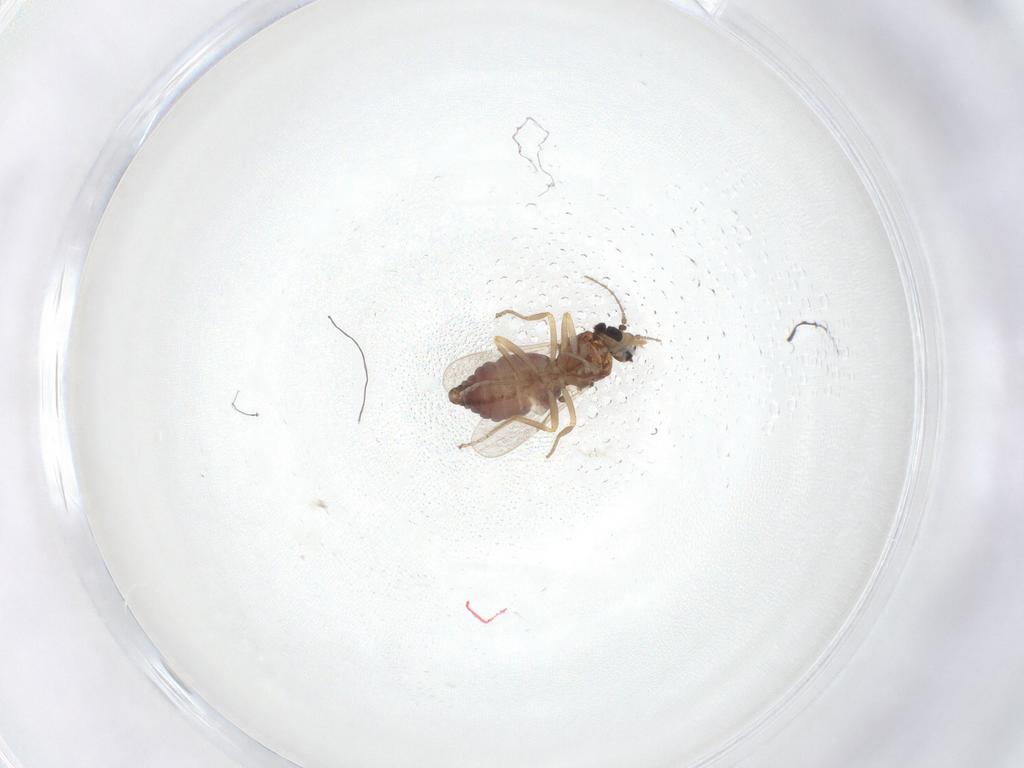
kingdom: Animalia
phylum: Arthropoda
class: Insecta
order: Diptera
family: Ceratopogonidae
